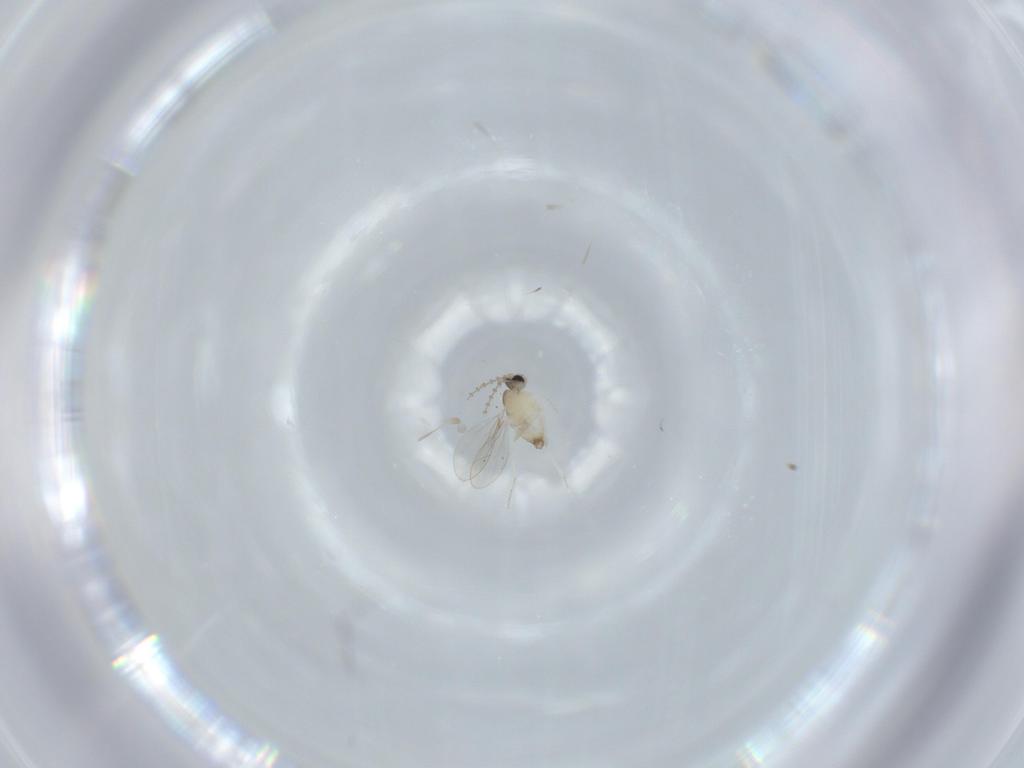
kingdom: Animalia
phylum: Arthropoda
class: Insecta
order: Diptera
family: Cecidomyiidae
